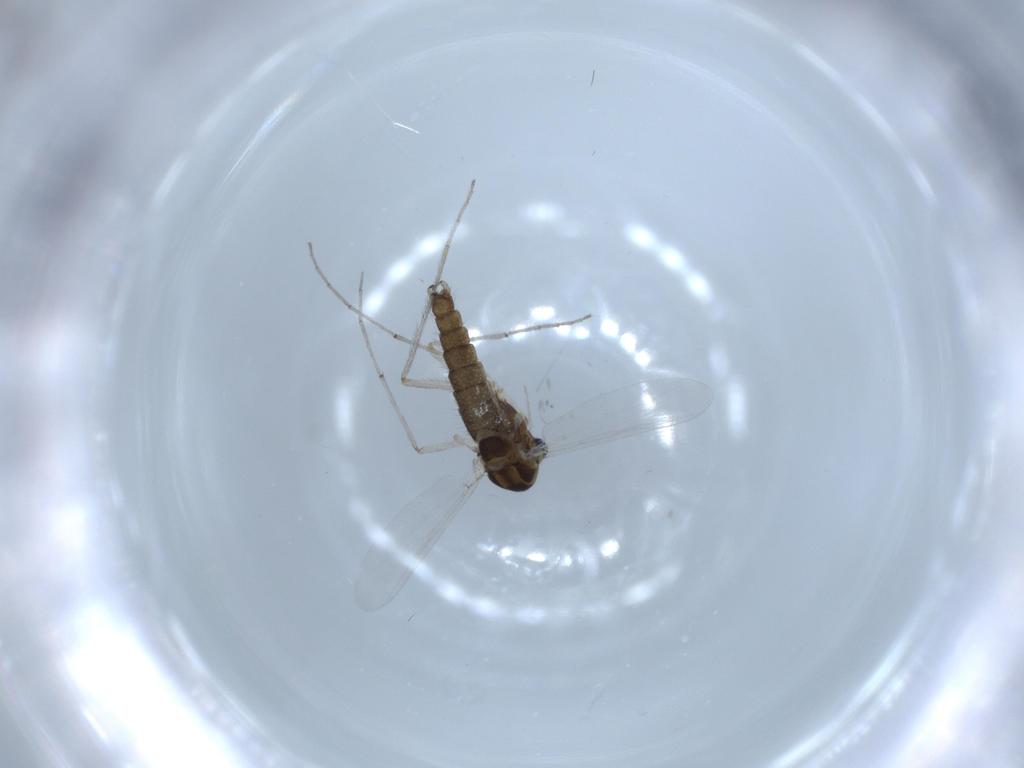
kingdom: Animalia
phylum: Arthropoda
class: Insecta
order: Diptera
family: Chironomidae
